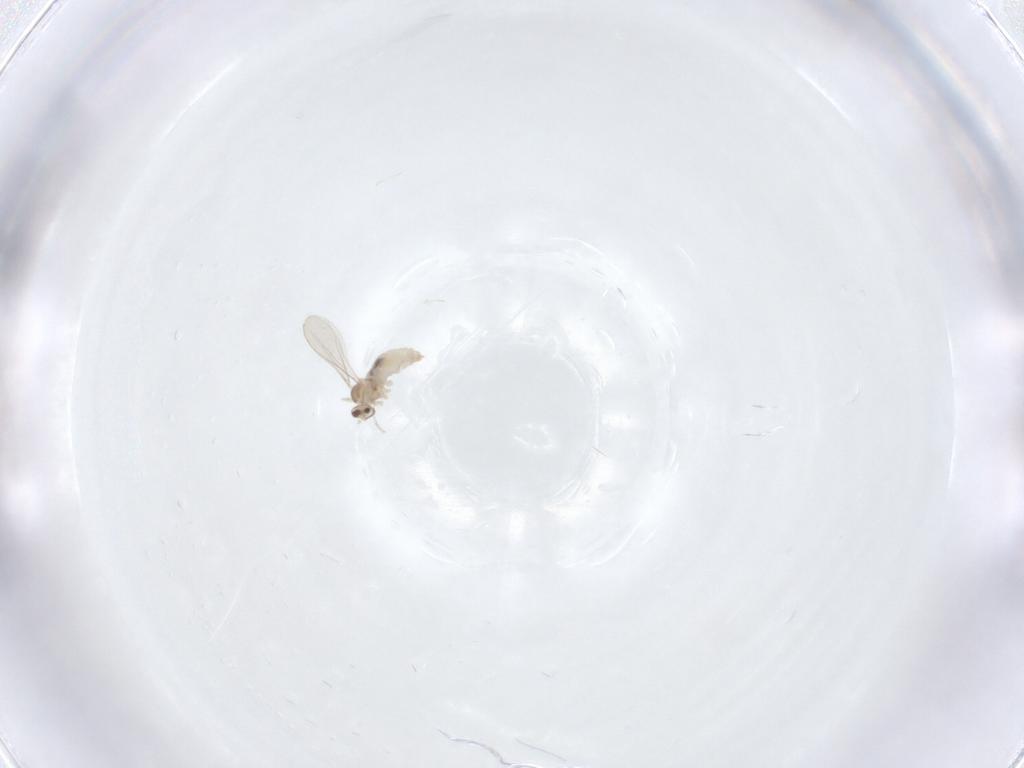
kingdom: Animalia
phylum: Arthropoda
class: Insecta
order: Diptera
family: Cecidomyiidae
